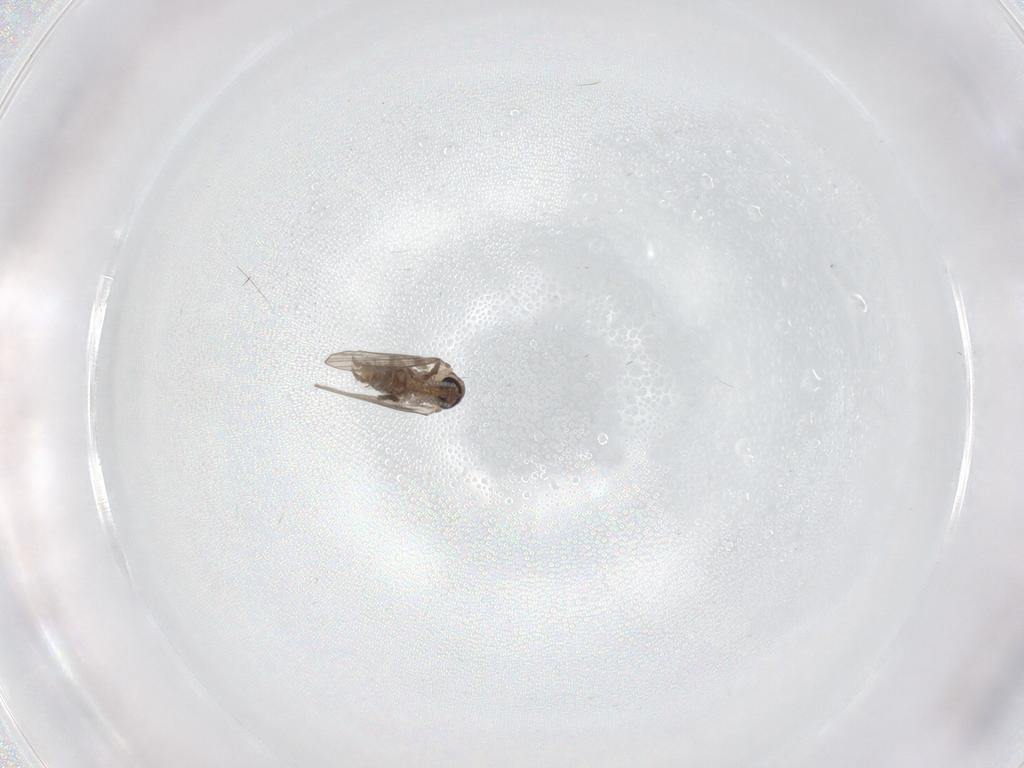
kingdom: Animalia
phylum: Arthropoda
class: Insecta
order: Diptera
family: Psychodidae
